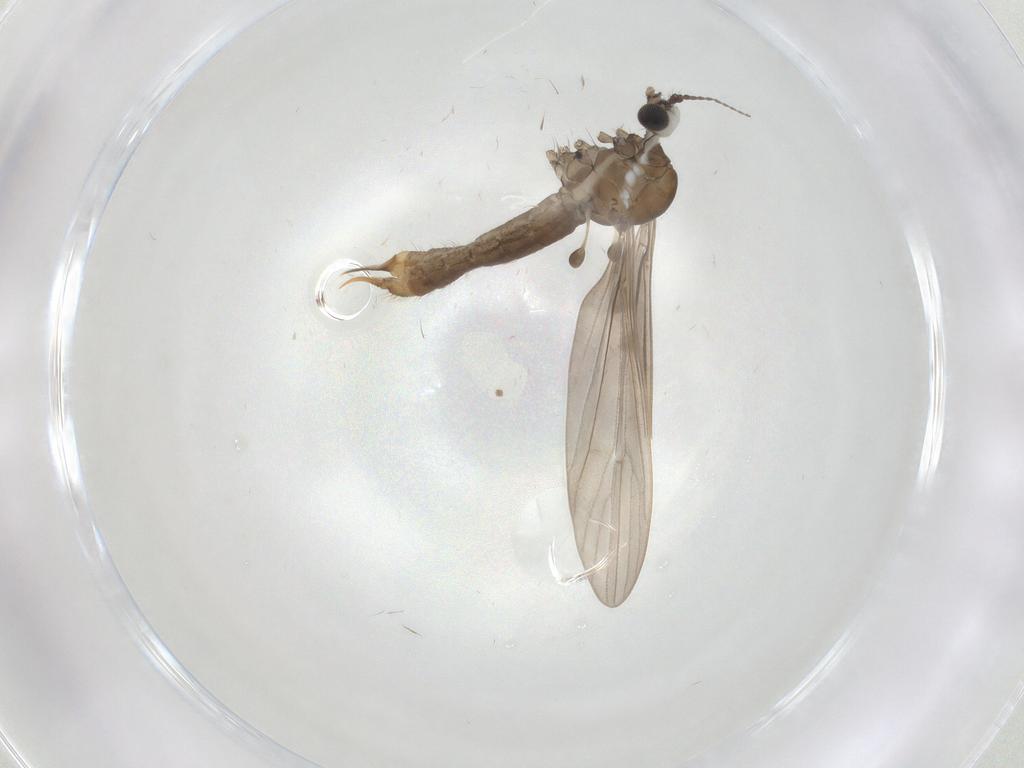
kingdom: Animalia
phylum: Arthropoda
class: Insecta
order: Diptera
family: Limoniidae
